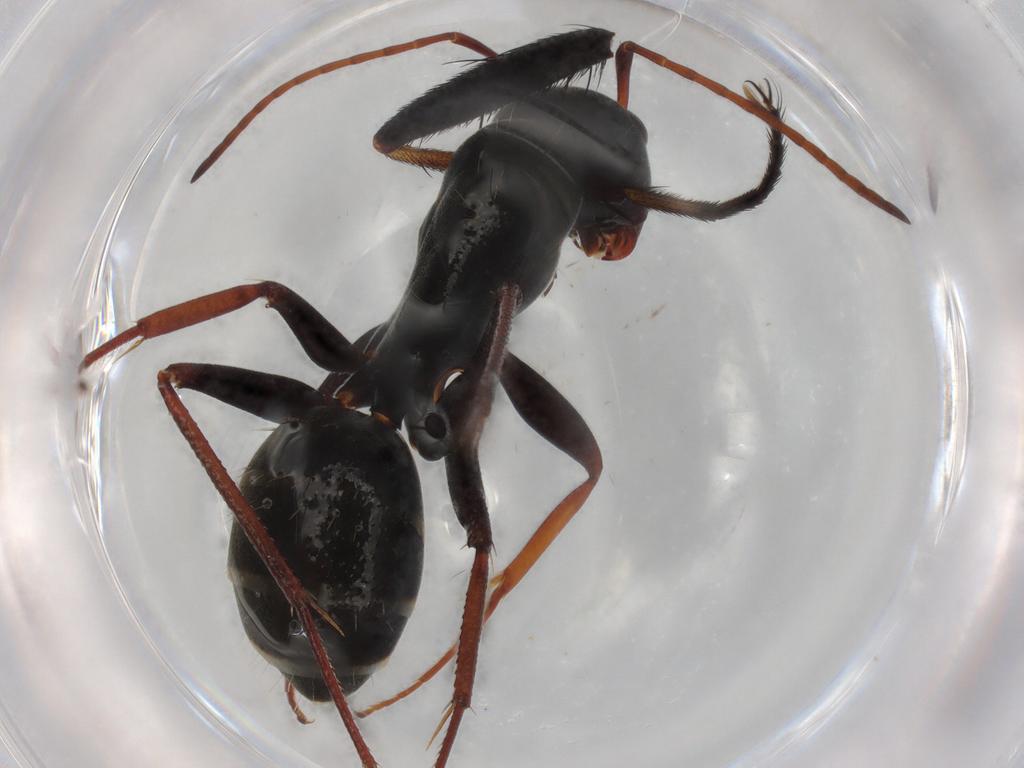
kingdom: Animalia
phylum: Arthropoda
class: Insecta
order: Hymenoptera
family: Formicidae
